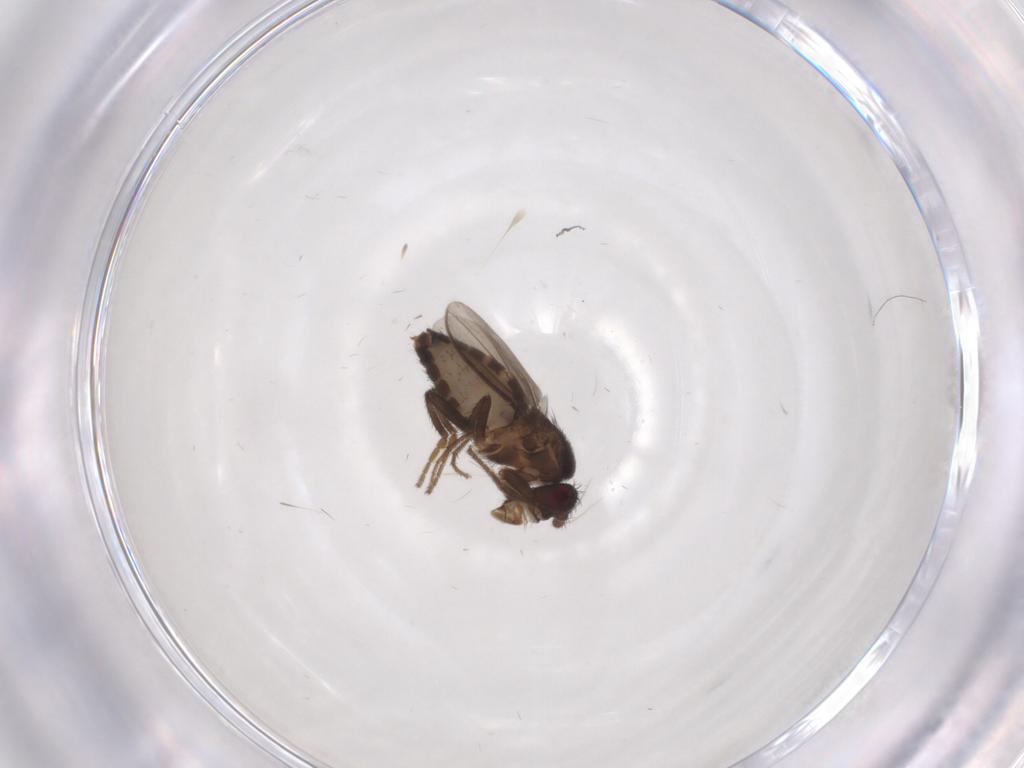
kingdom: Animalia
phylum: Arthropoda
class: Insecta
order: Diptera
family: Sphaeroceridae
